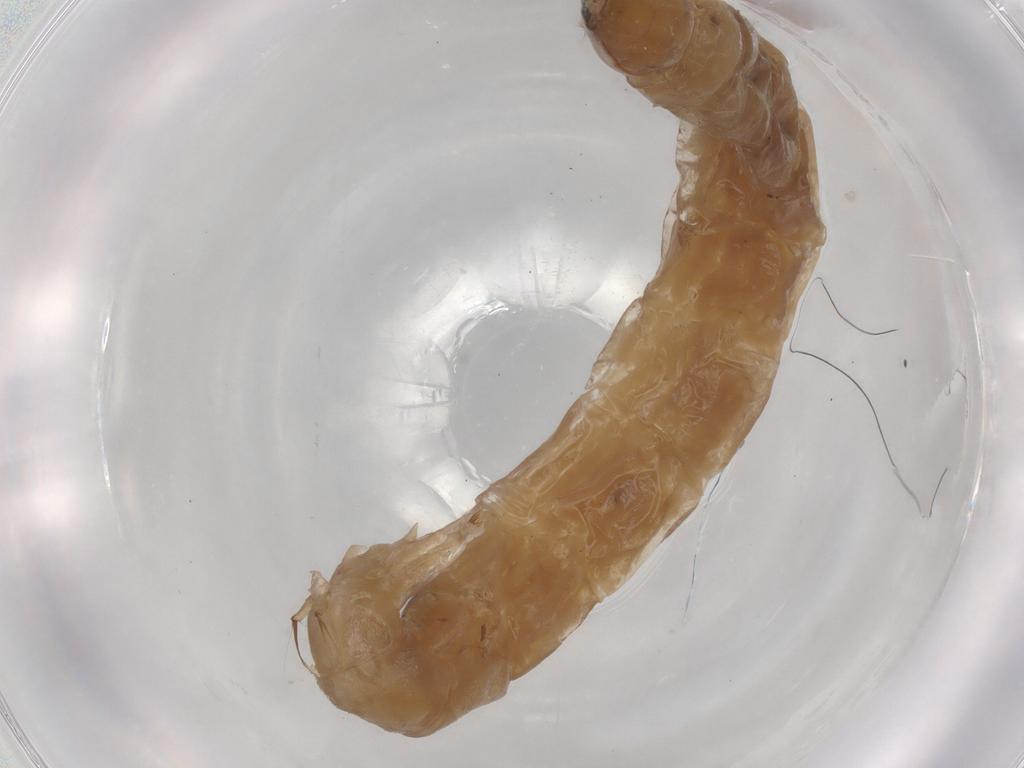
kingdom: Animalia
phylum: Arthropoda
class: Insecta
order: Diptera
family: Chironomidae
